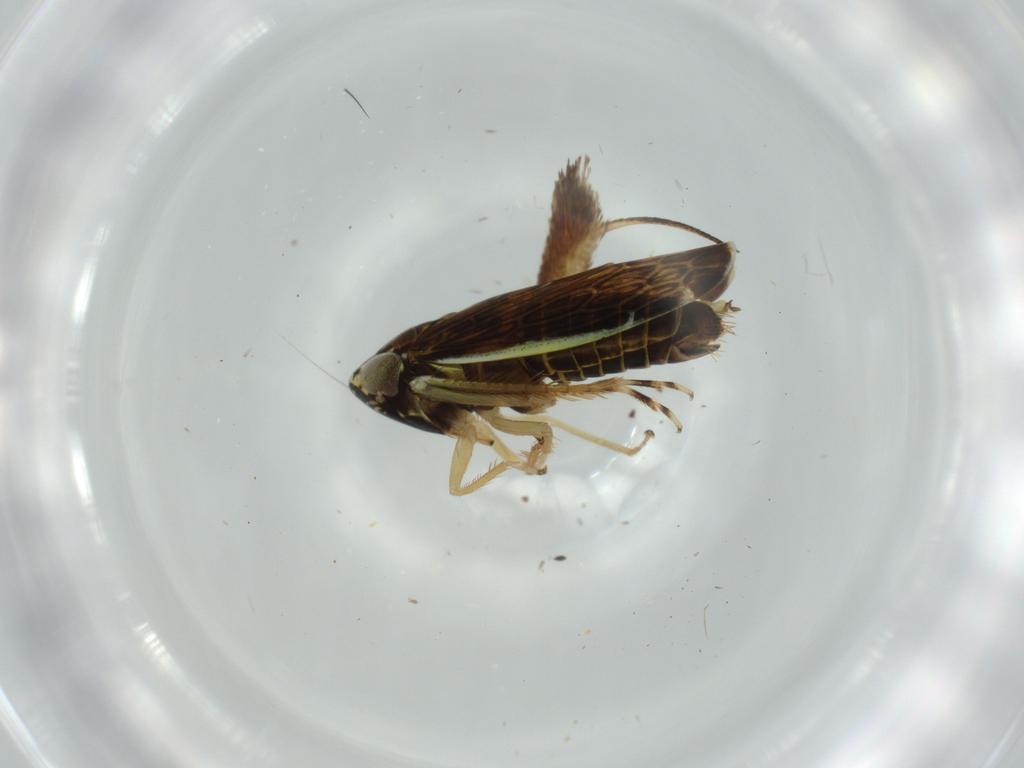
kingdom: Animalia
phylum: Arthropoda
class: Insecta
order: Hemiptera
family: Cicadellidae
